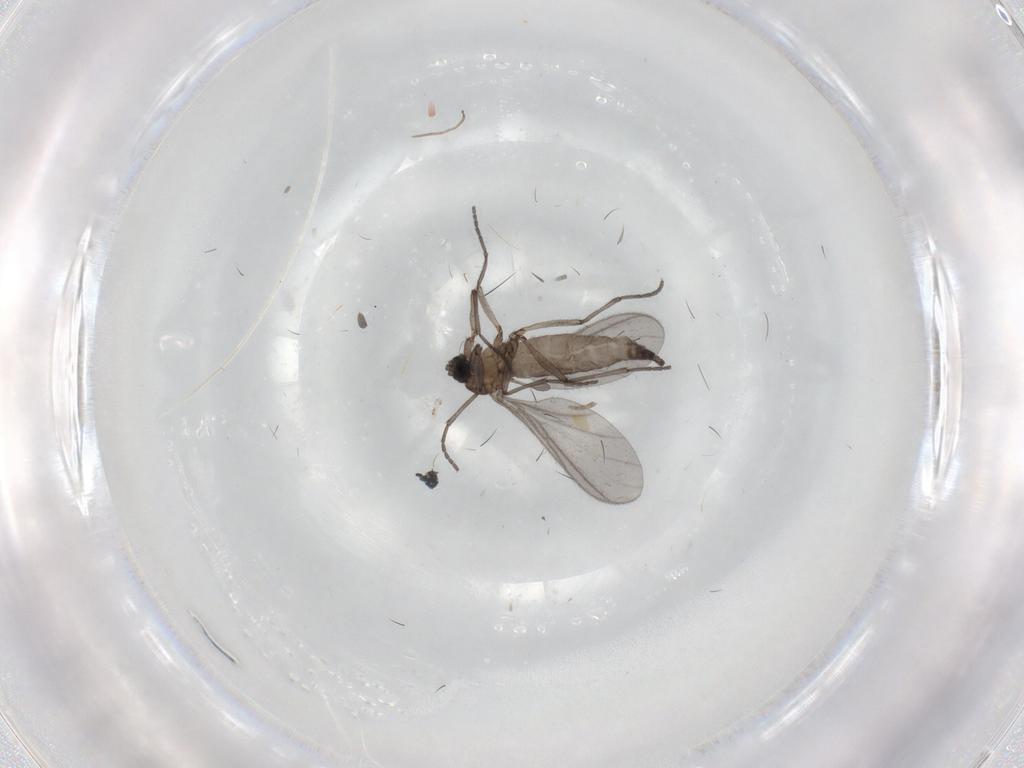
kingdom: Animalia
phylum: Arthropoda
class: Insecta
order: Diptera
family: Sciaridae
